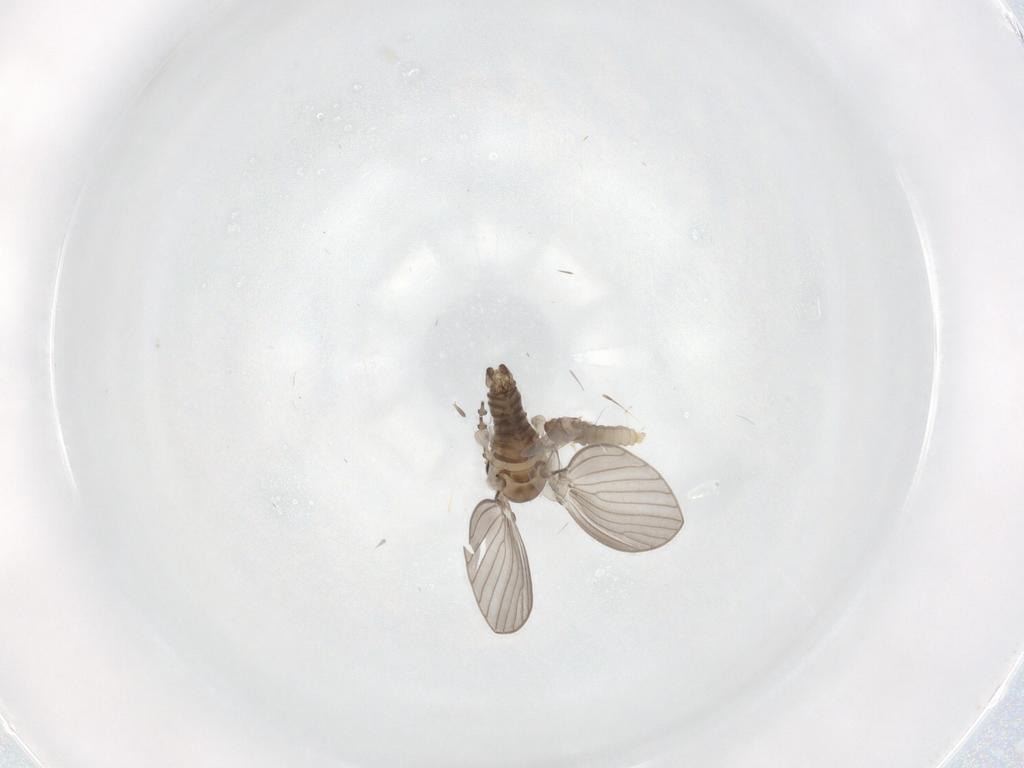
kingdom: Animalia
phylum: Arthropoda
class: Insecta
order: Diptera
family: Psychodidae
